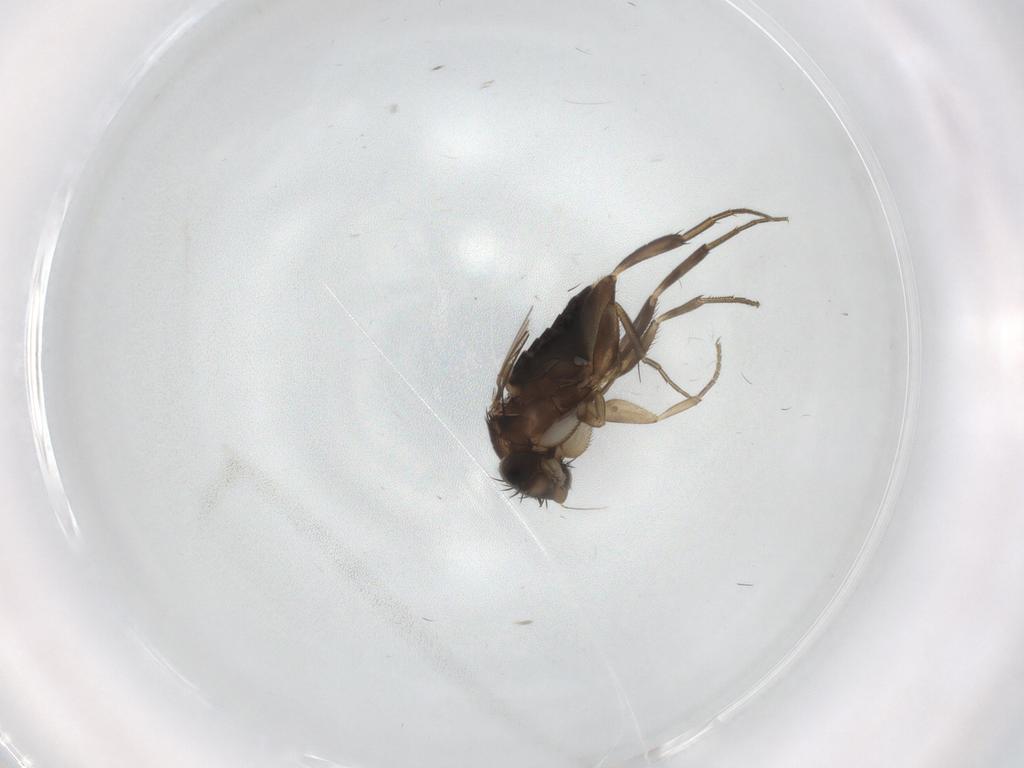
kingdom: Animalia
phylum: Arthropoda
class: Insecta
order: Diptera
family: Phoridae
